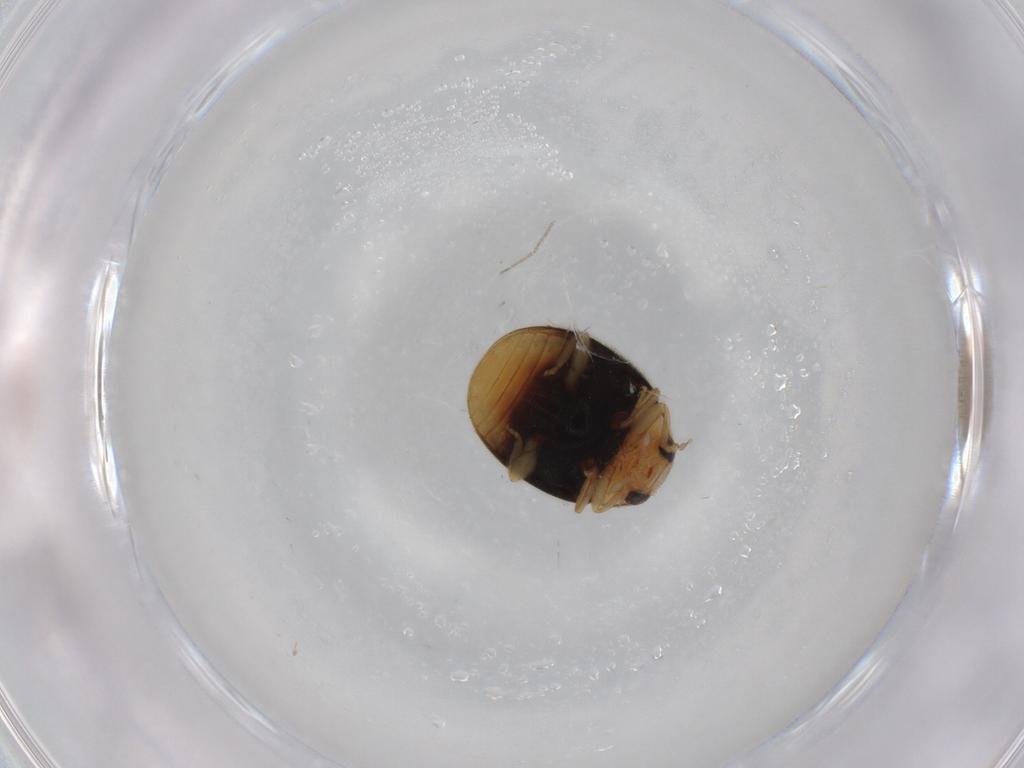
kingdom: Animalia
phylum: Arthropoda
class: Insecta
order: Coleoptera
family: Coccinellidae
